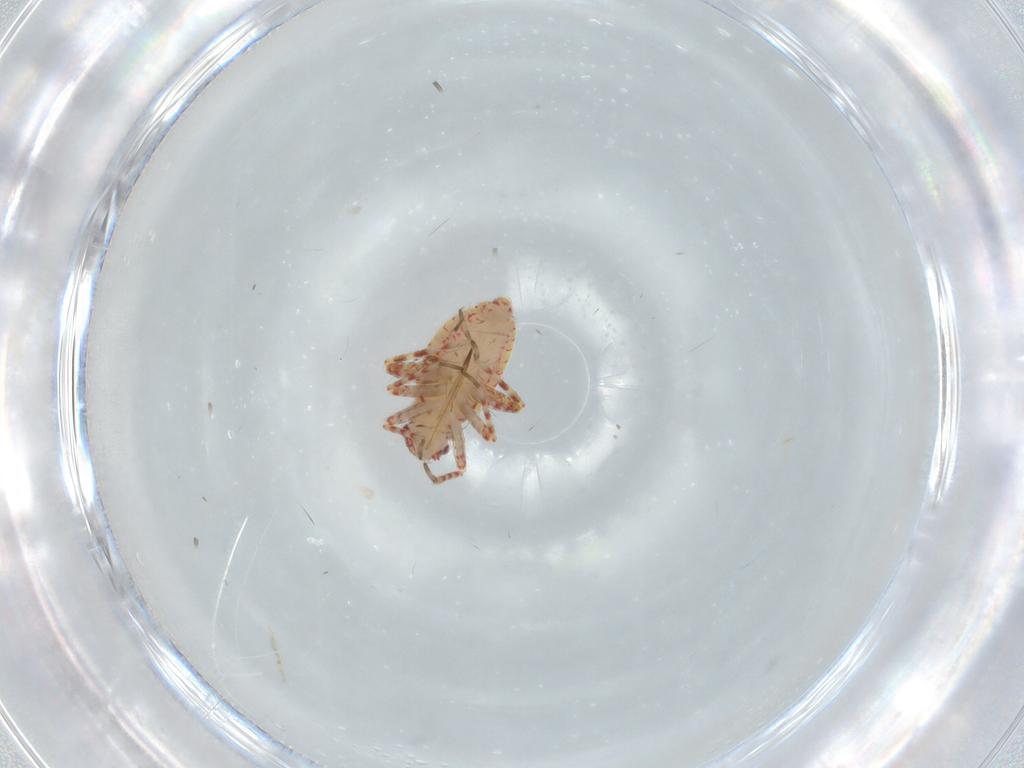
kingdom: Animalia
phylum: Arthropoda
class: Insecta
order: Hemiptera
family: Miridae
